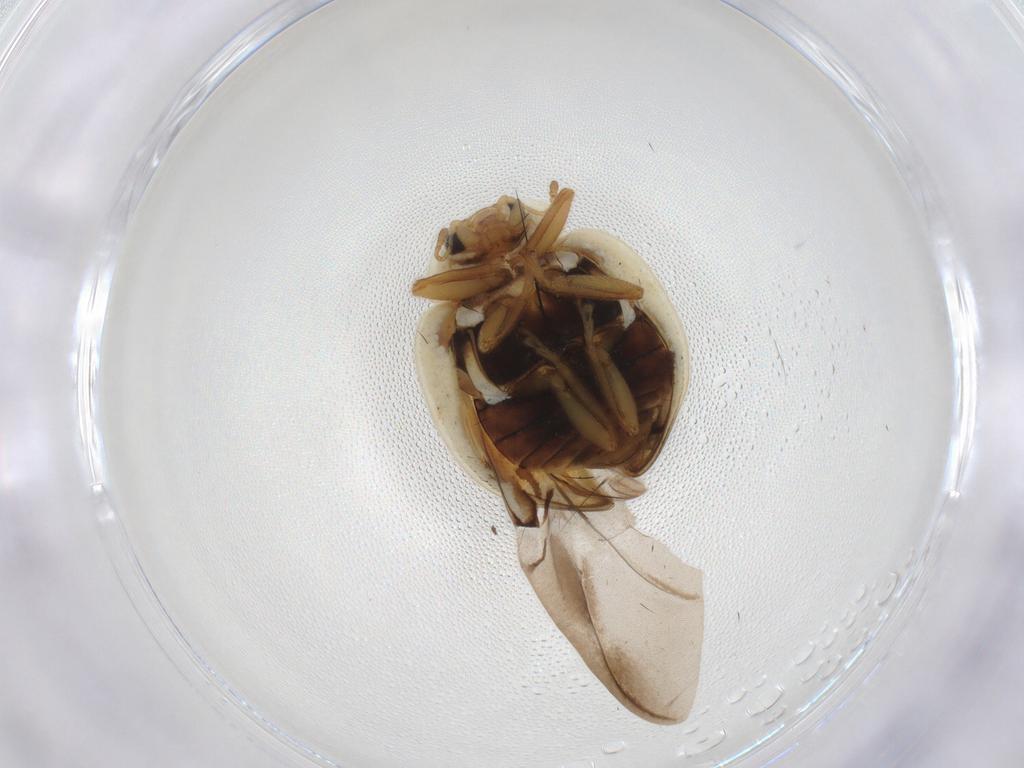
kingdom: Animalia
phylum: Arthropoda
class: Insecta
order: Coleoptera
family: Coccinellidae
